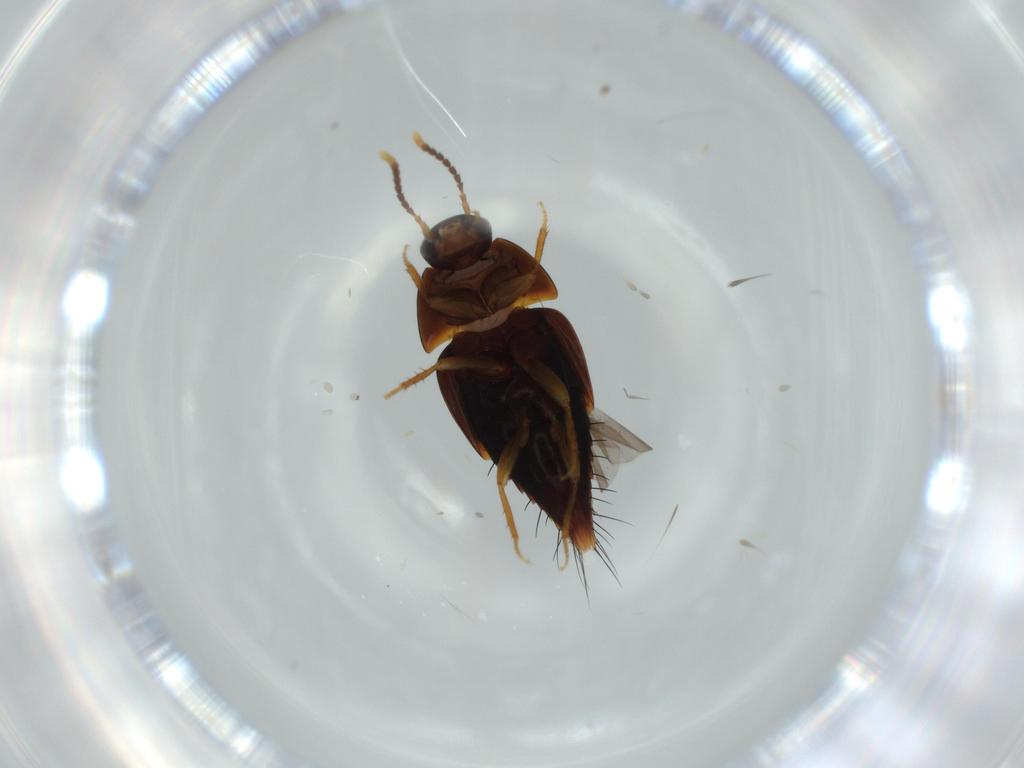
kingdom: Animalia
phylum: Arthropoda
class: Insecta
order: Coleoptera
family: Staphylinidae
